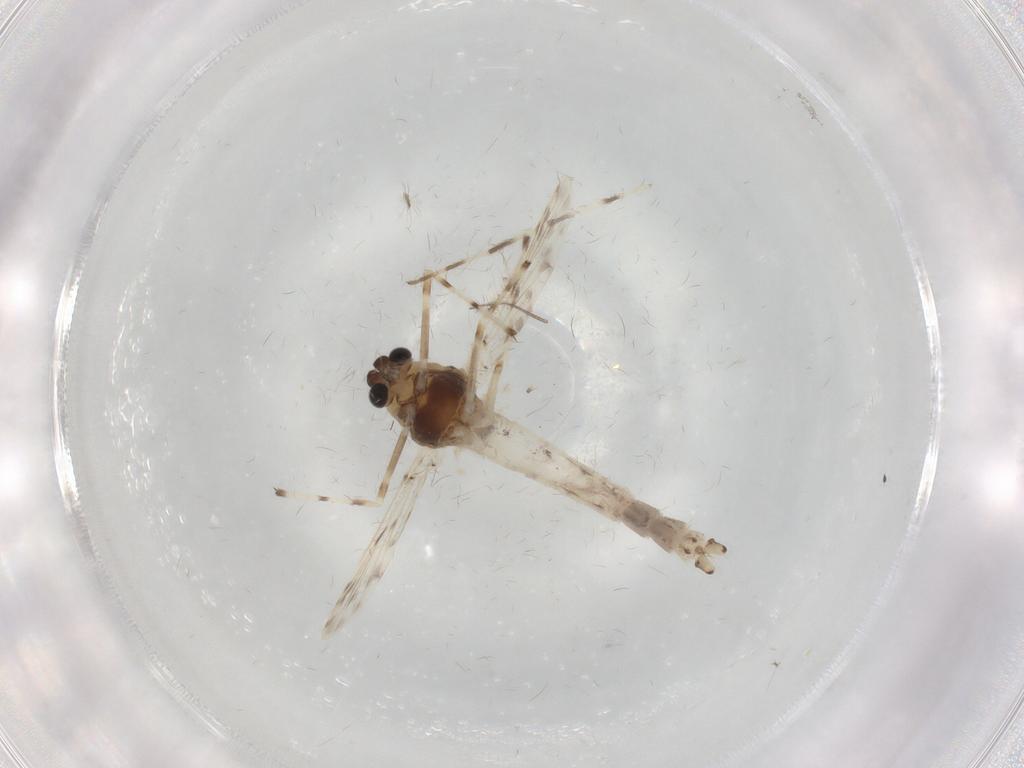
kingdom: Animalia
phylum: Arthropoda
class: Insecta
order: Diptera
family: Chironomidae
